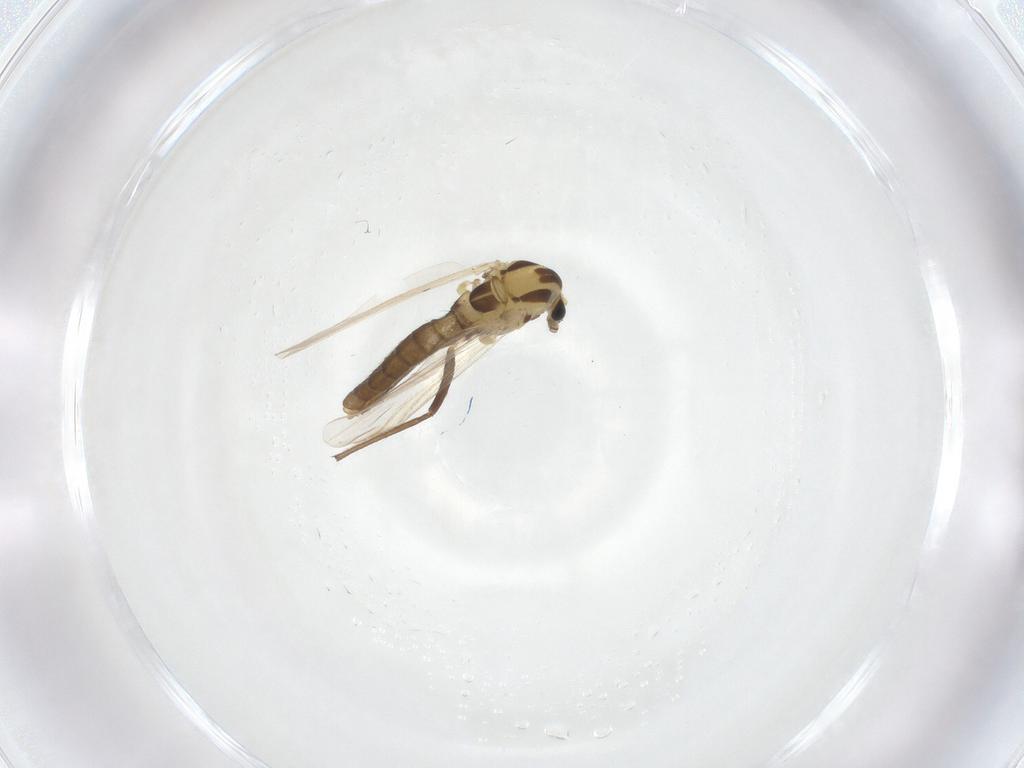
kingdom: Animalia
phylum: Arthropoda
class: Insecta
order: Diptera
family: Chironomidae
